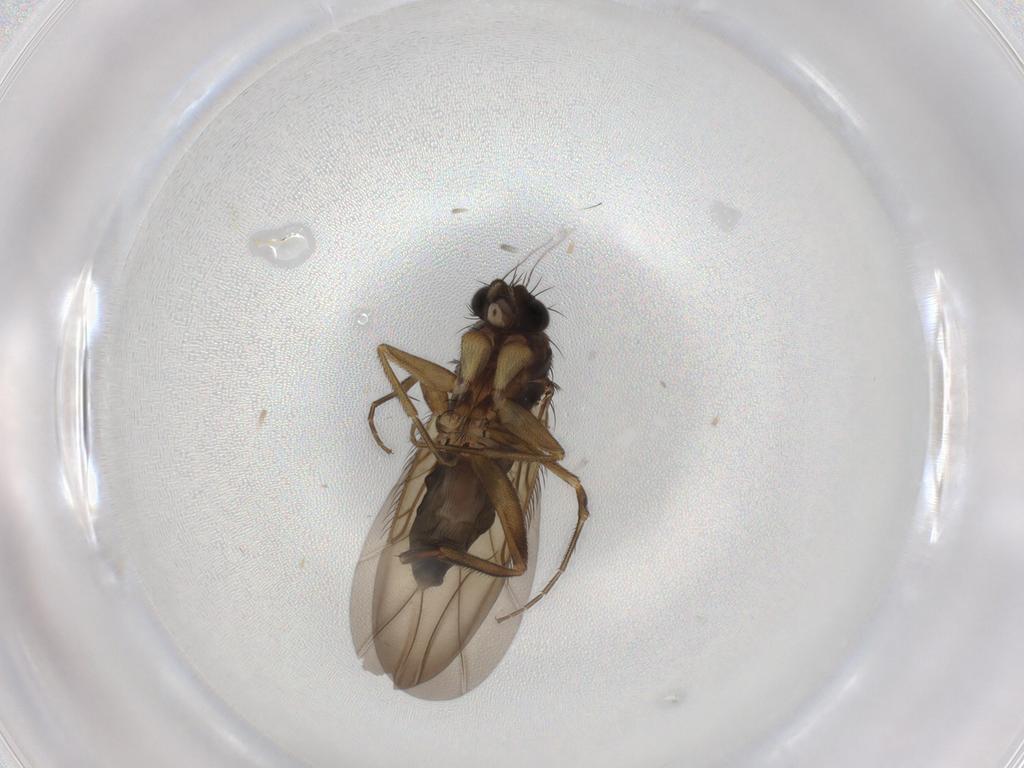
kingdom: Animalia
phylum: Arthropoda
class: Insecta
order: Diptera
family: Phoridae
